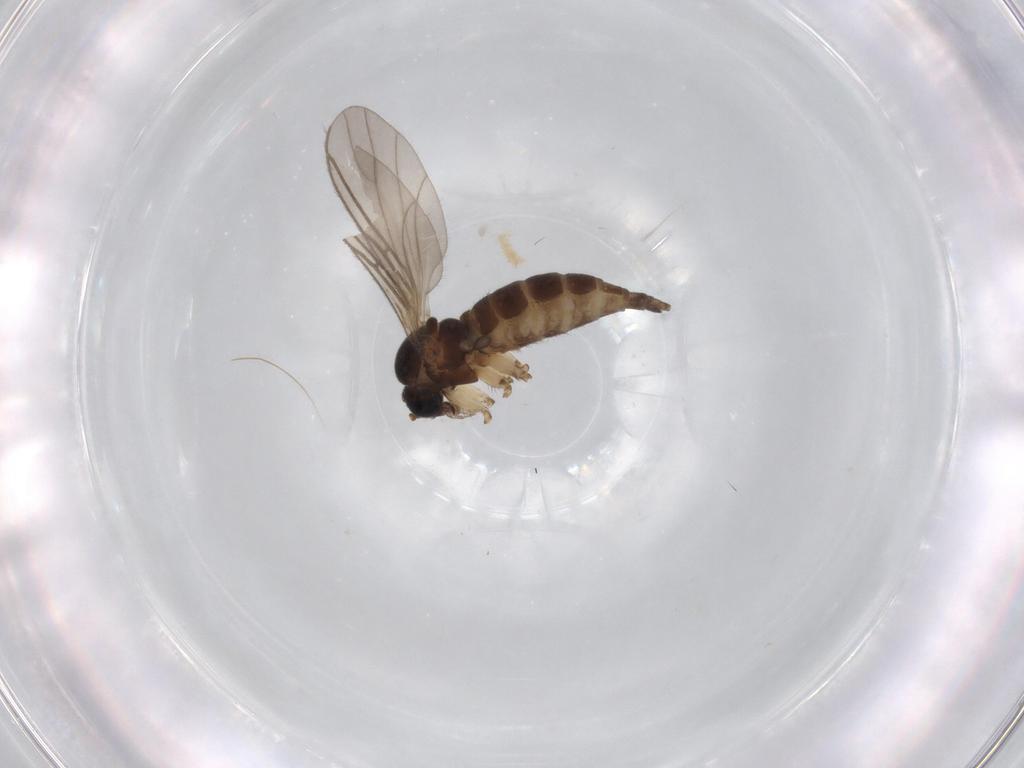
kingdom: Animalia
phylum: Arthropoda
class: Insecta
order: Diptera
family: Sciaridae
